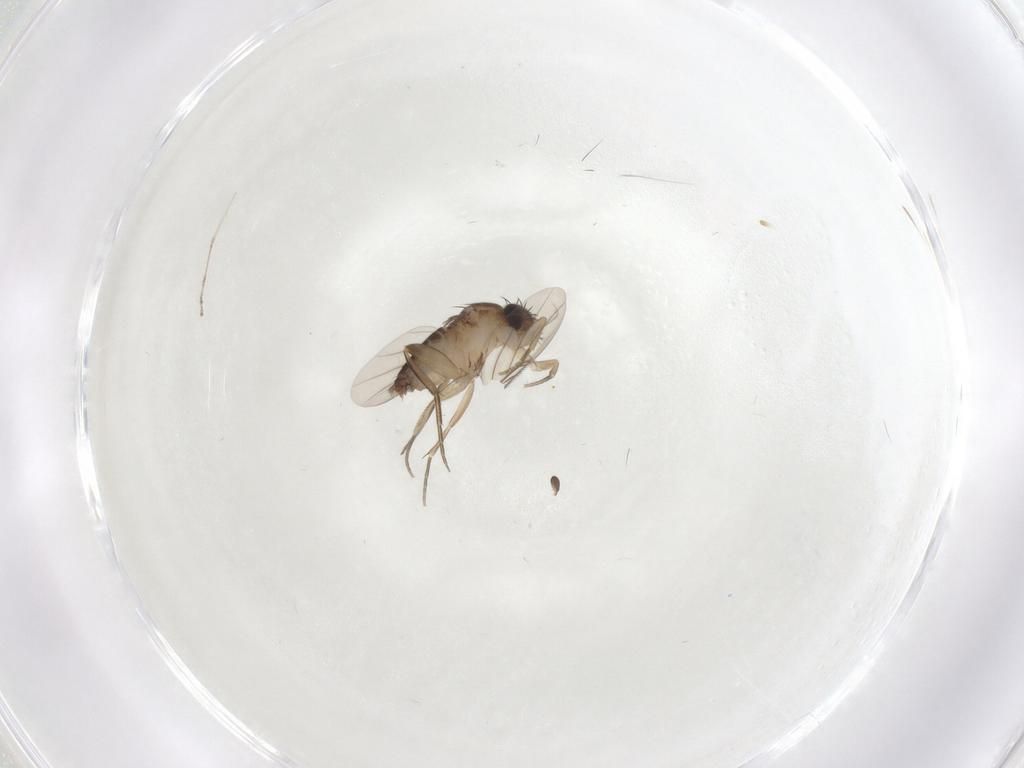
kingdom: Animalia
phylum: Arthropoda
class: Insecta
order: Diptera
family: Phoridae
